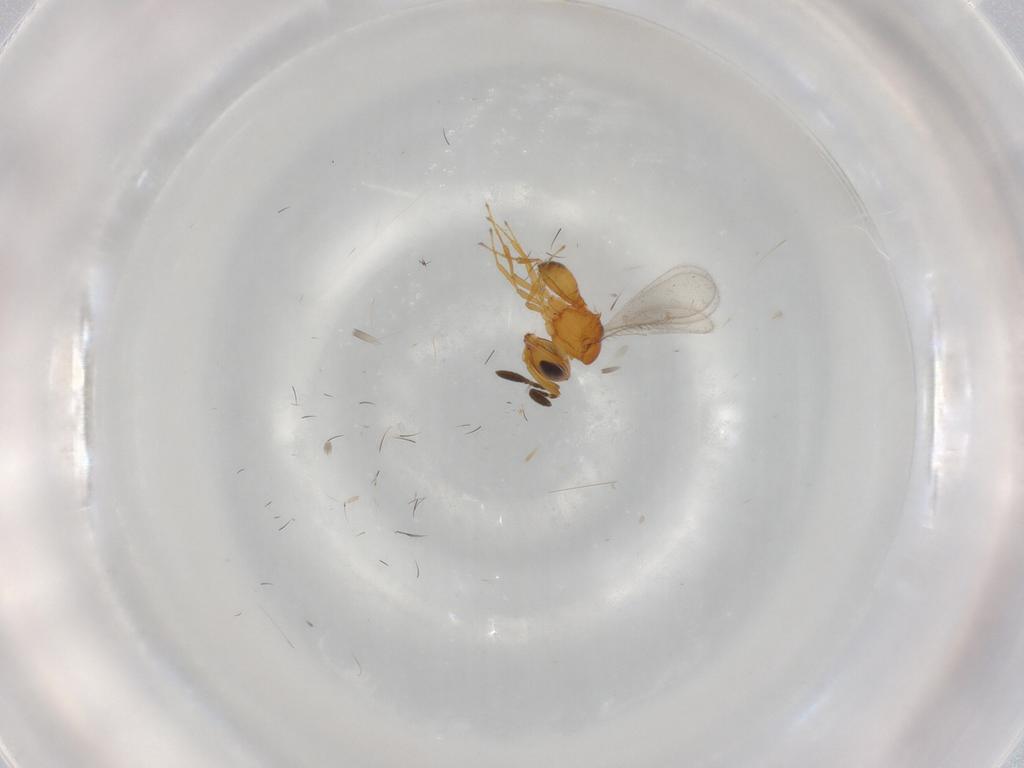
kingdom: Animalia
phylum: Arthropoda
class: Insecta
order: Hymenoptera
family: Scelionidae
